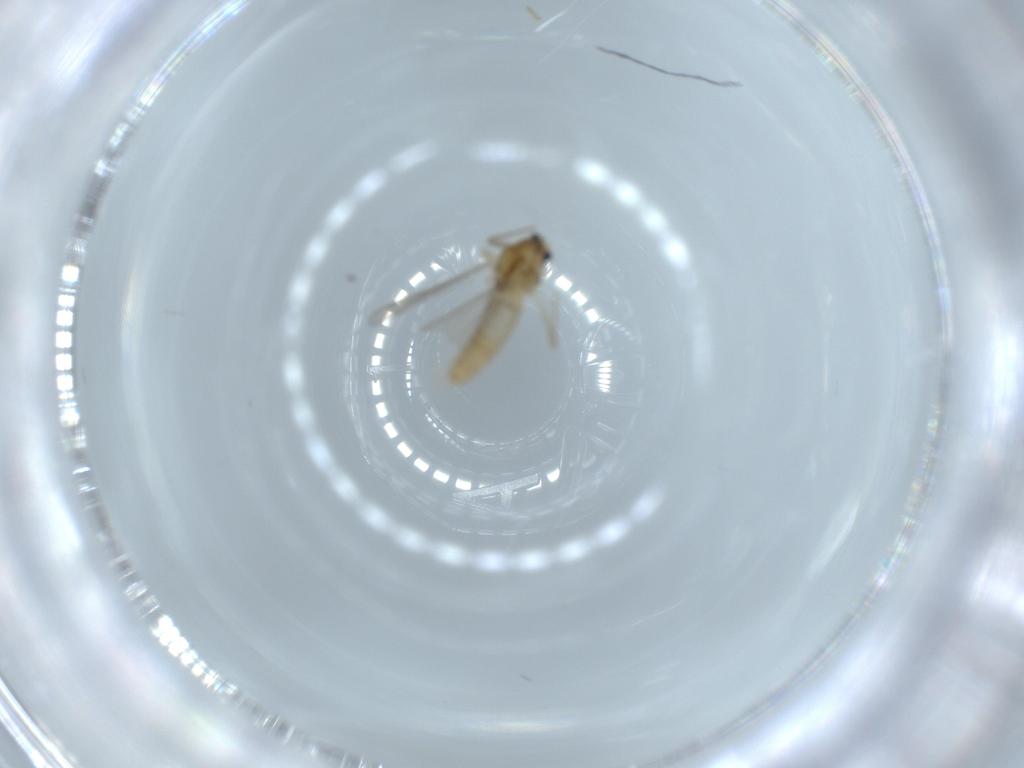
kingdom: Animalia
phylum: Arthropoda
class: Insecta
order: Diptera
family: Chironomidae
